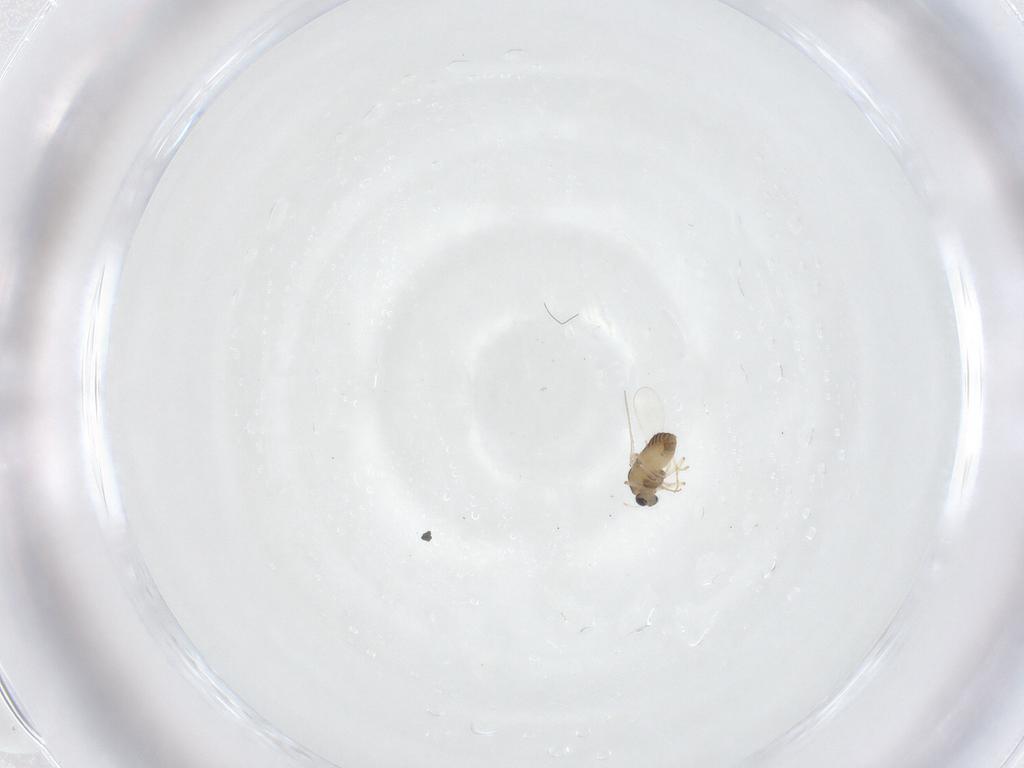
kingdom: Animalia
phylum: Arthropoda
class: Insecta
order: Diptera
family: Chironomidae
